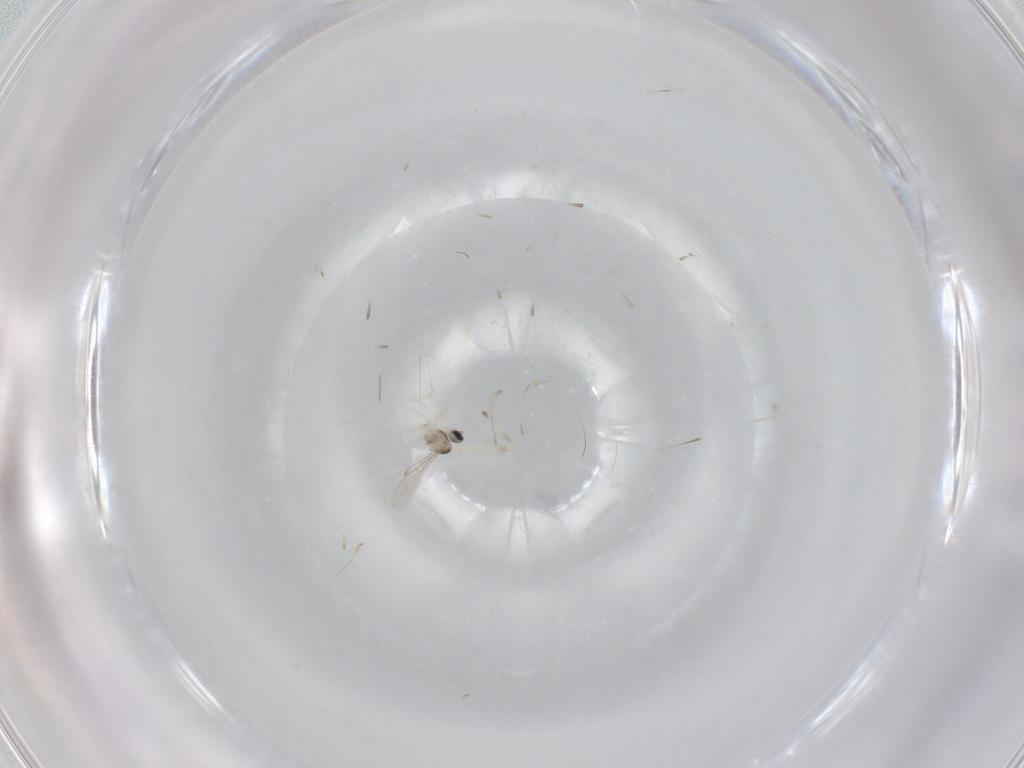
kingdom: Animalia
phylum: Arthropoda
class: Insecta
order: Diptera
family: Chironomidae
